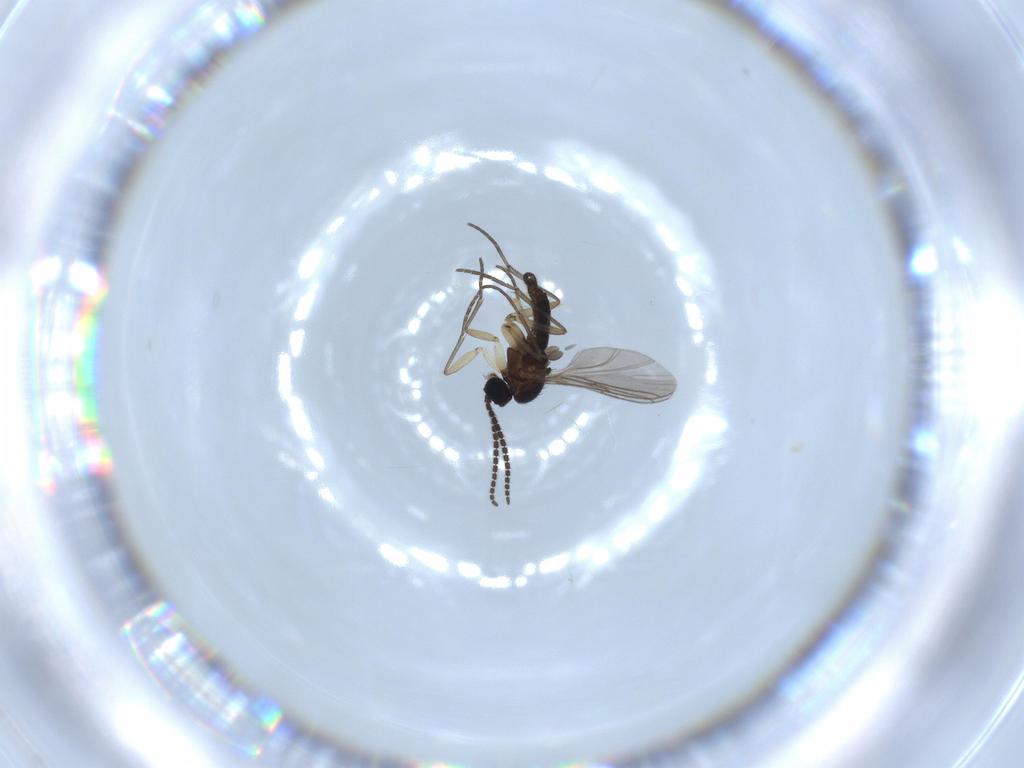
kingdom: Animalia
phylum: Arthropoda
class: Insecta
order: Diptera
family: Sciaridae
